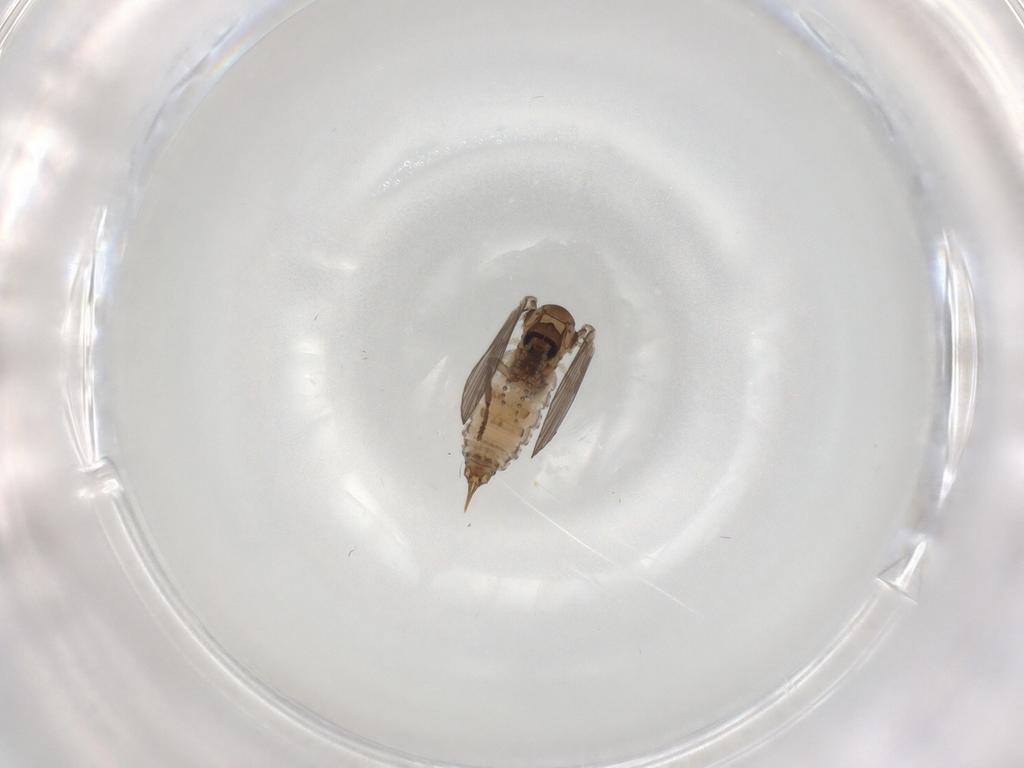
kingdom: Animalia
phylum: Arthropoda
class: Insecta
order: Diptera
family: Psychodidae
